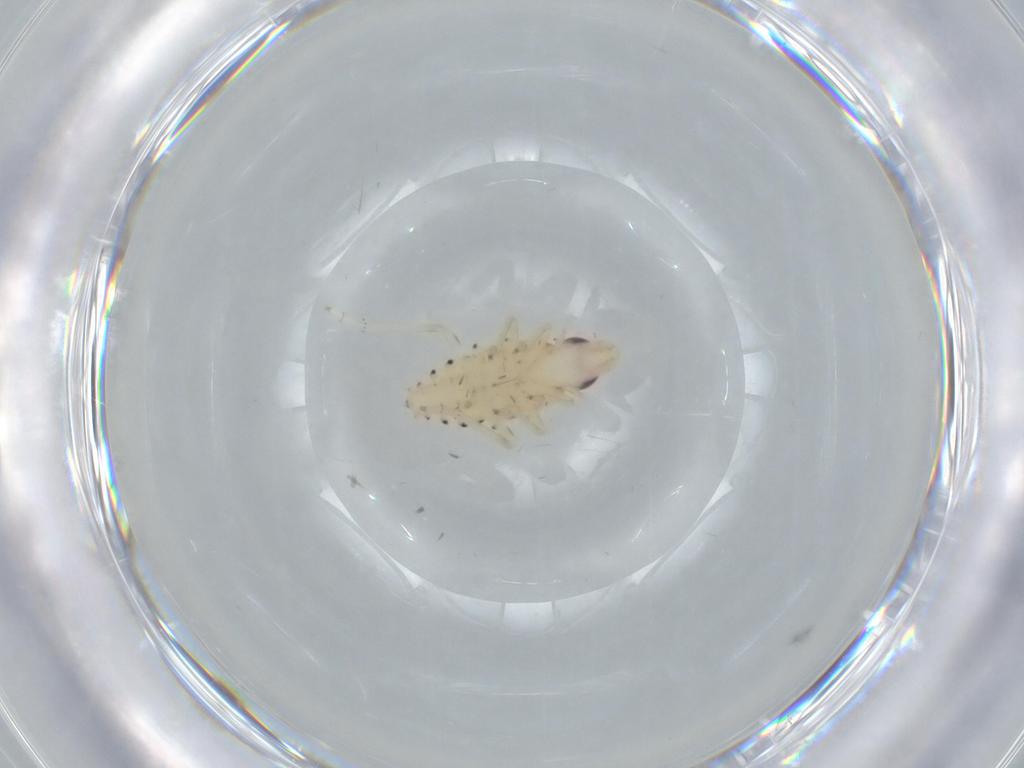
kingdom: Animalia
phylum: Arthropoda
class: Insecta
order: Hemiptera
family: Tropiduchidae
